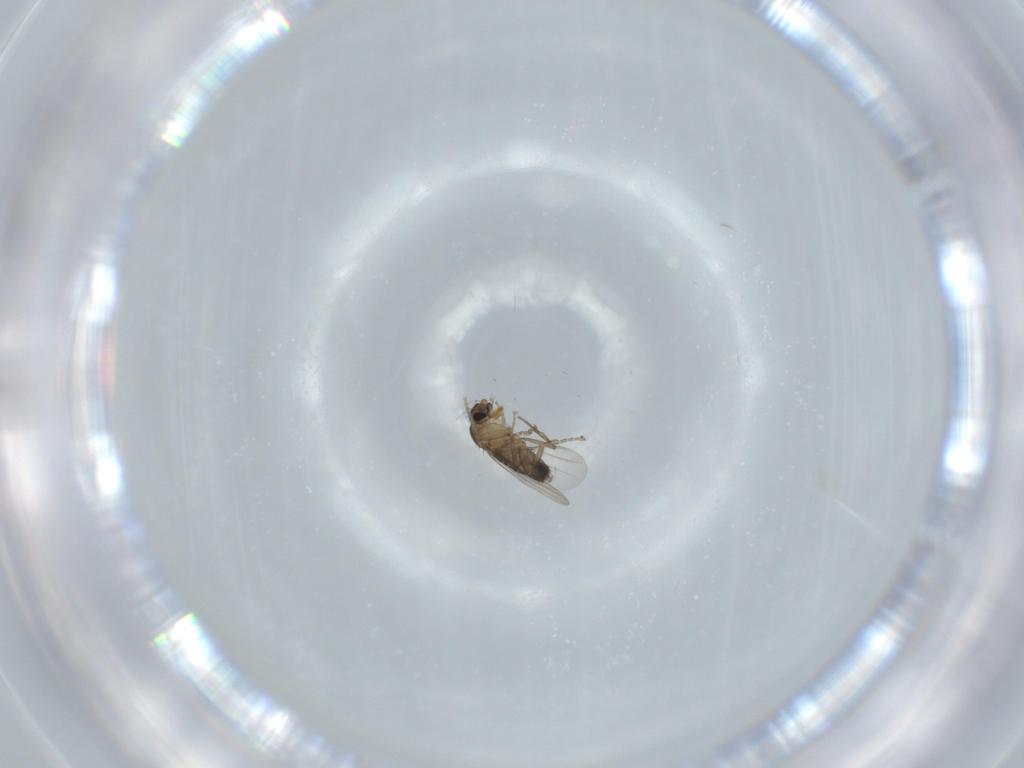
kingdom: Animalia
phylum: Arthropoda
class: Insecta
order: Diptera
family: Phoridae
